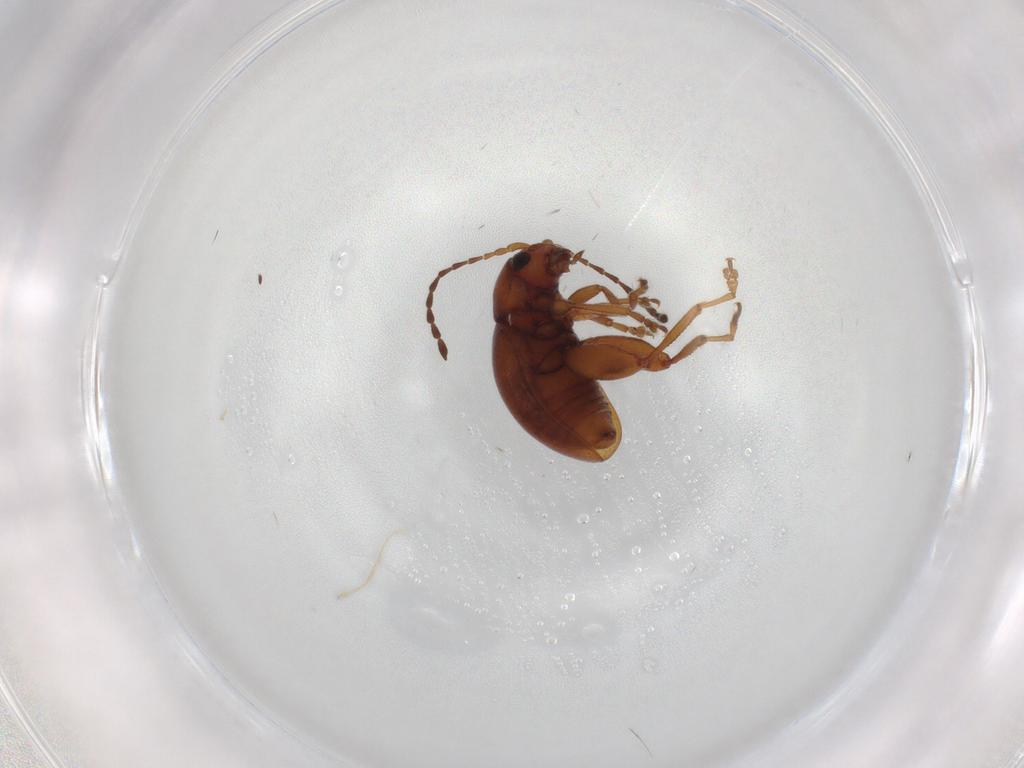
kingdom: Animalia
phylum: Arthropoda
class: Insecta
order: Coleoptera
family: Chrysomelidae
